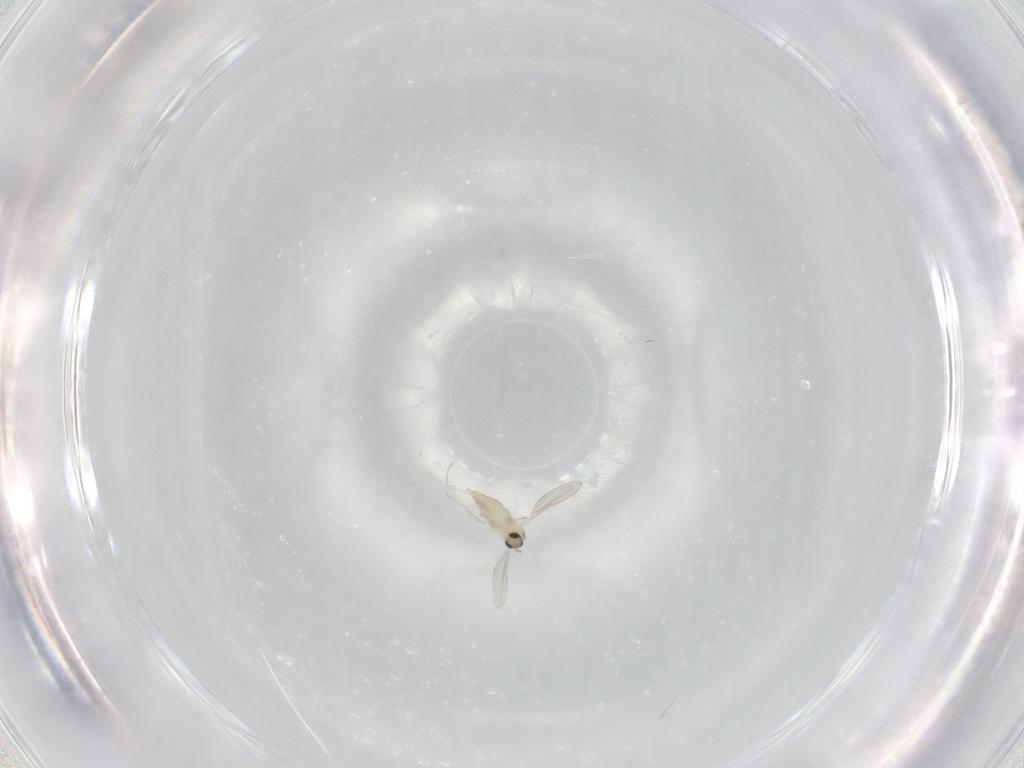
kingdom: Animalia
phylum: Arthropoda
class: Insecta
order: Diptera
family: Cecidomyiidae
